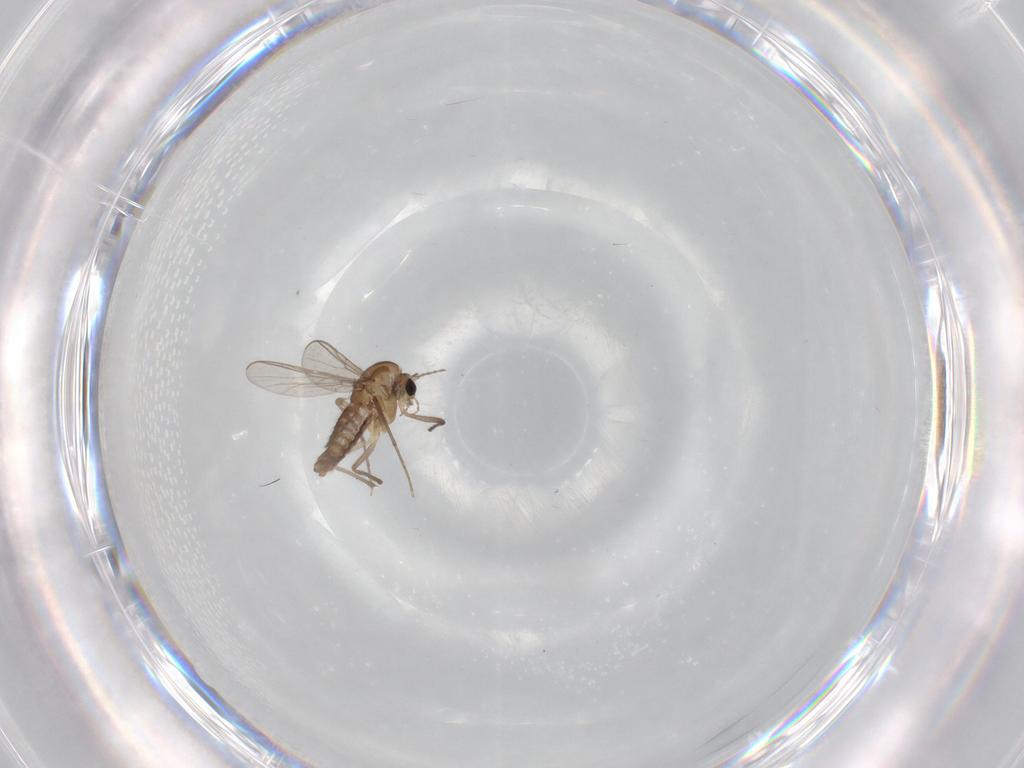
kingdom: Animalia
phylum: Arthropoda
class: Insecta
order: Diptera
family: Chironomidae
